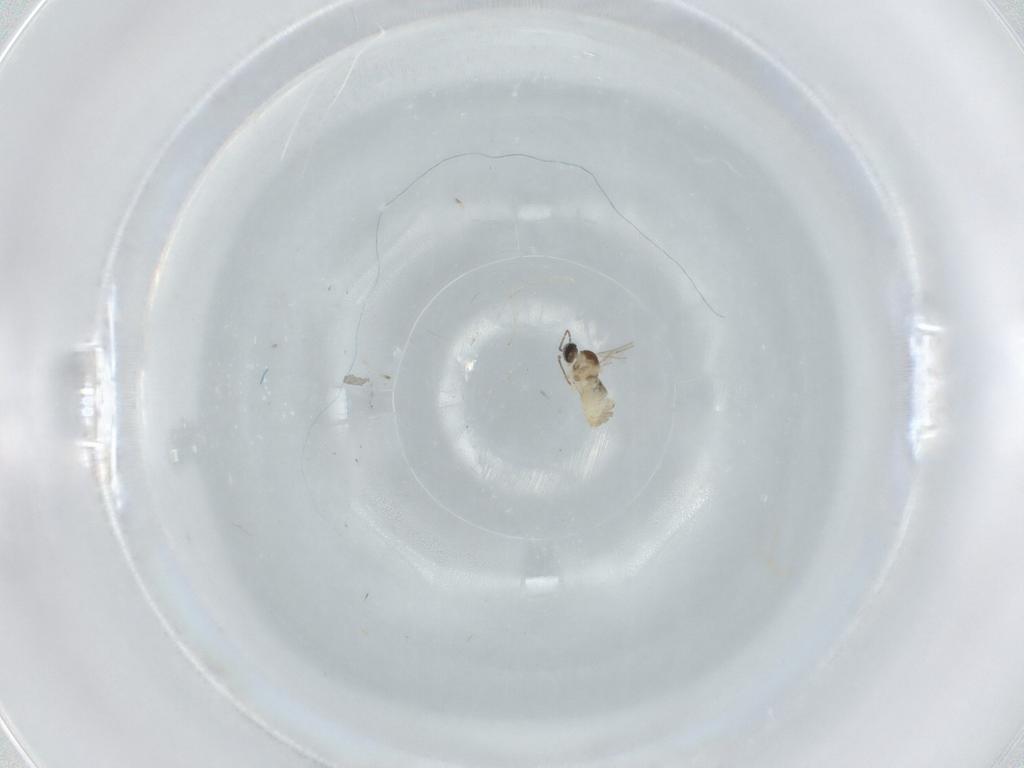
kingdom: Animalia
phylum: Arthropoda
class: Insecta
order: Diptera
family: Cecidomyiidae
